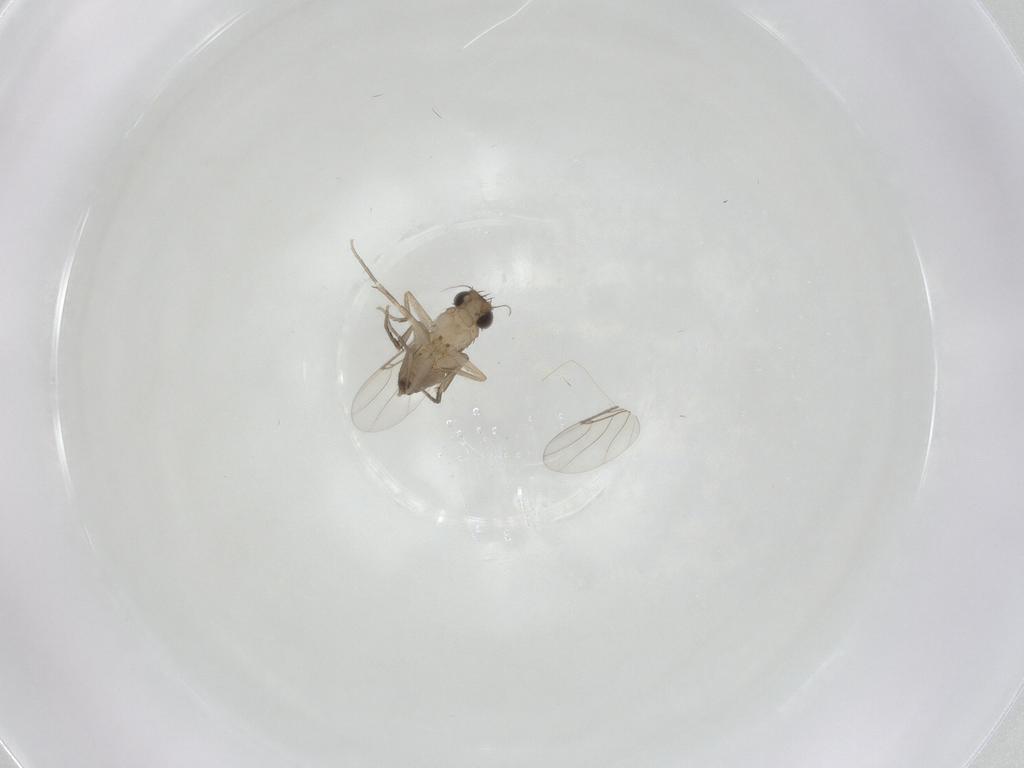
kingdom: Animalia
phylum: Arthropoda
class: Insecta
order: Diptera
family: Phoridae
